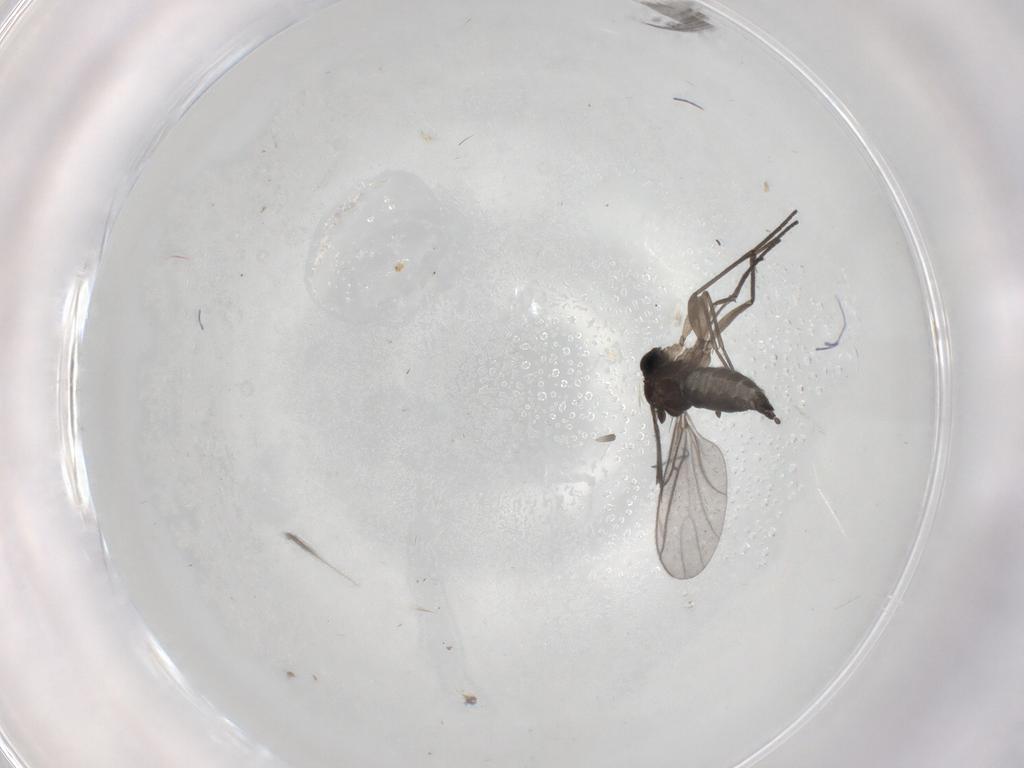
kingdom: Animalia
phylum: Arthropoda
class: Insecta
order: Diptera
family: Sciaridae
